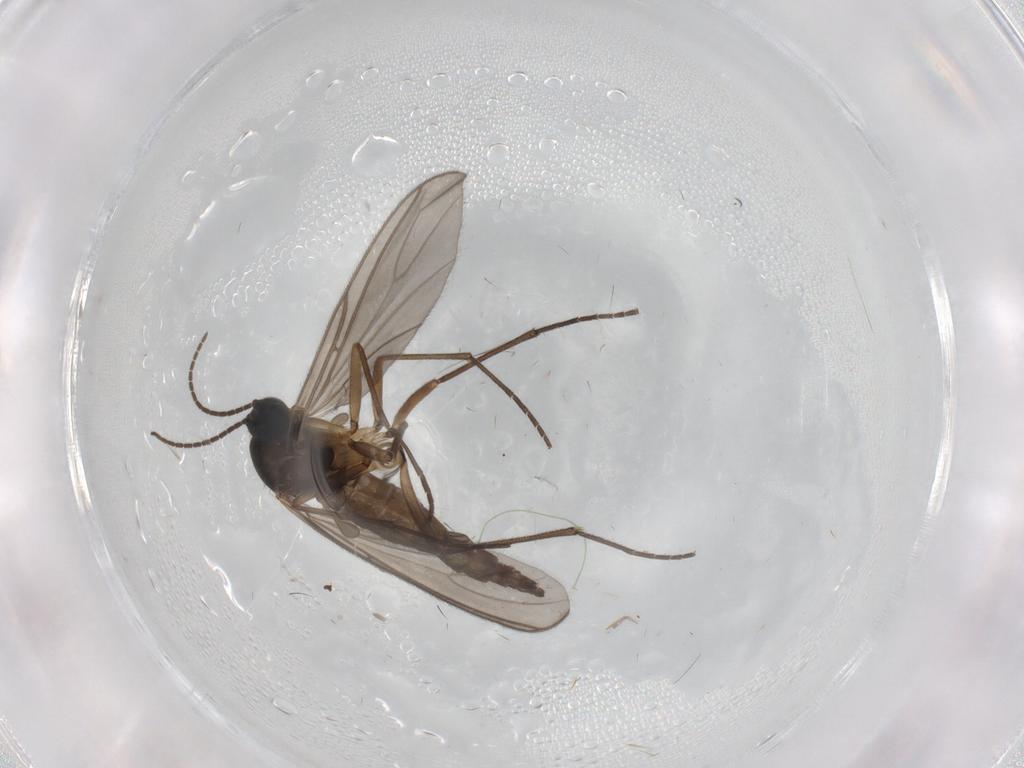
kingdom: Animalia
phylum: Arthropoda
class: Insecta
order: Diptera
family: Sciaridae
